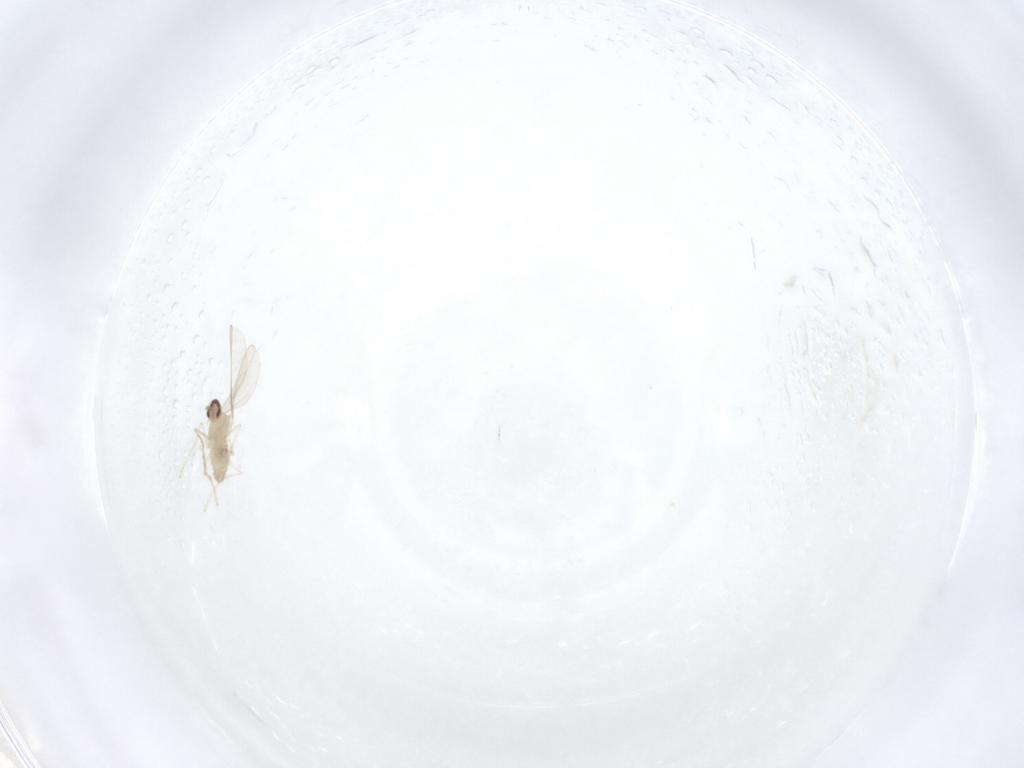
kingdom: Animalia
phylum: Arthropoda
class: Insecta
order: Diptera
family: Cecidomyiidae
